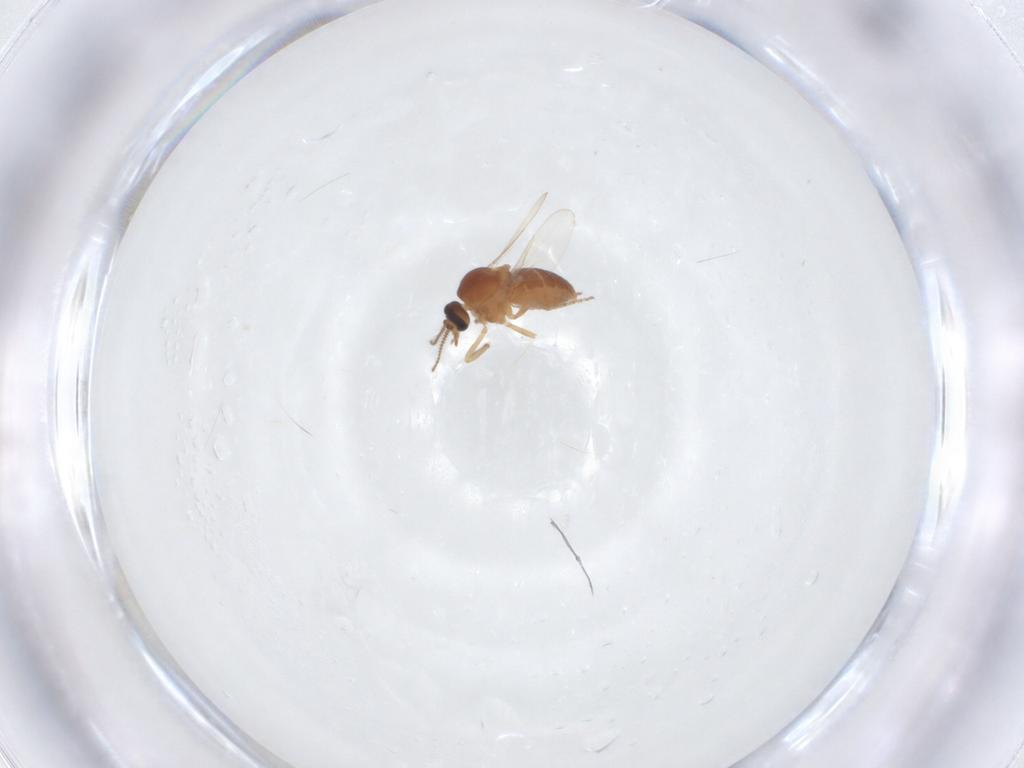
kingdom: Animalia
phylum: Arthropoda
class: Insecta
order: Diptera
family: Ceratopogonidae
